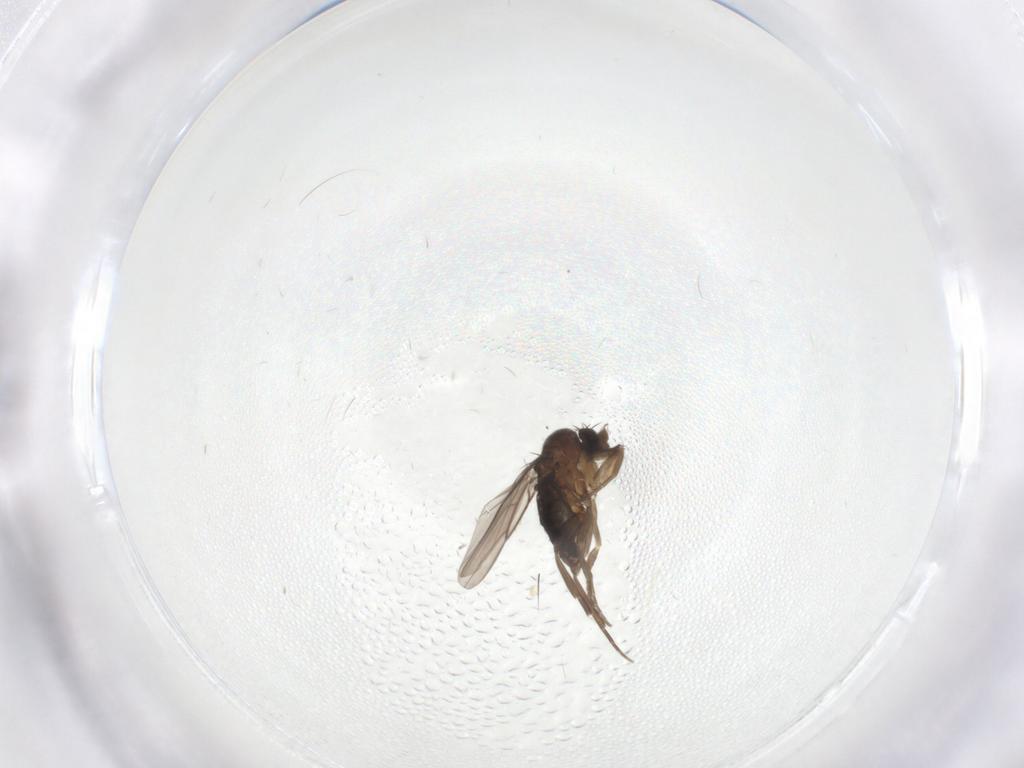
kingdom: Animalia
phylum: Arthropoda
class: Insecta
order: Diptera
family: Phoridae
